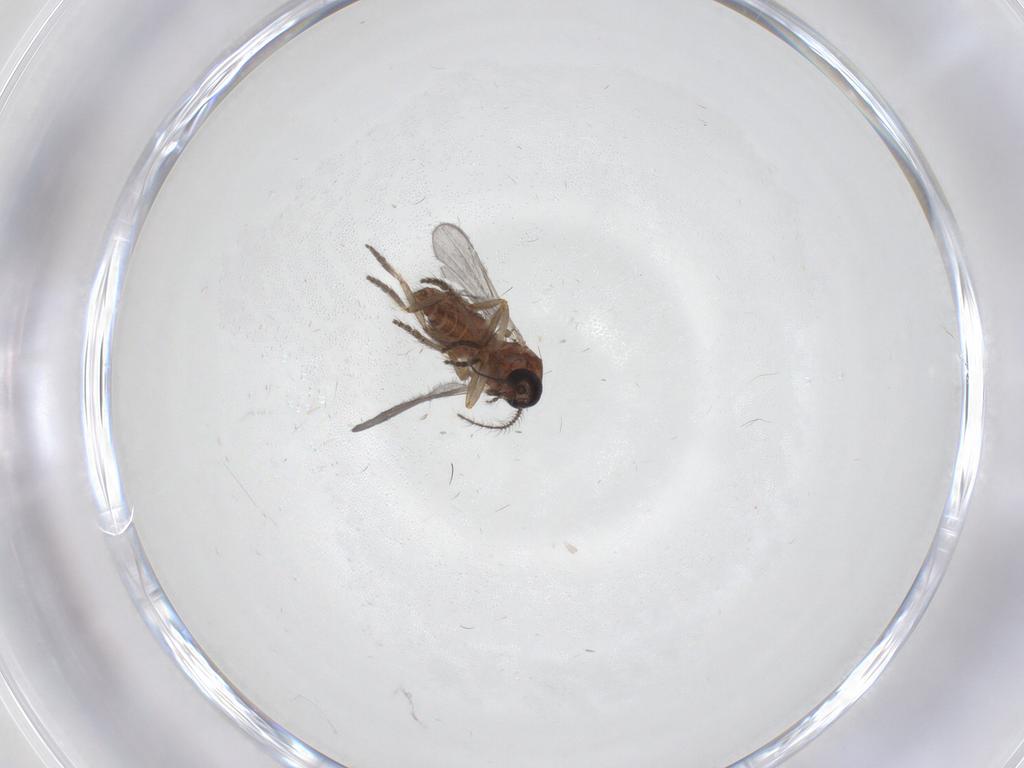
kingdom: Animalia
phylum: Arthropoda
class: Insecta
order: Diptera
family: Ceratopogonidae
